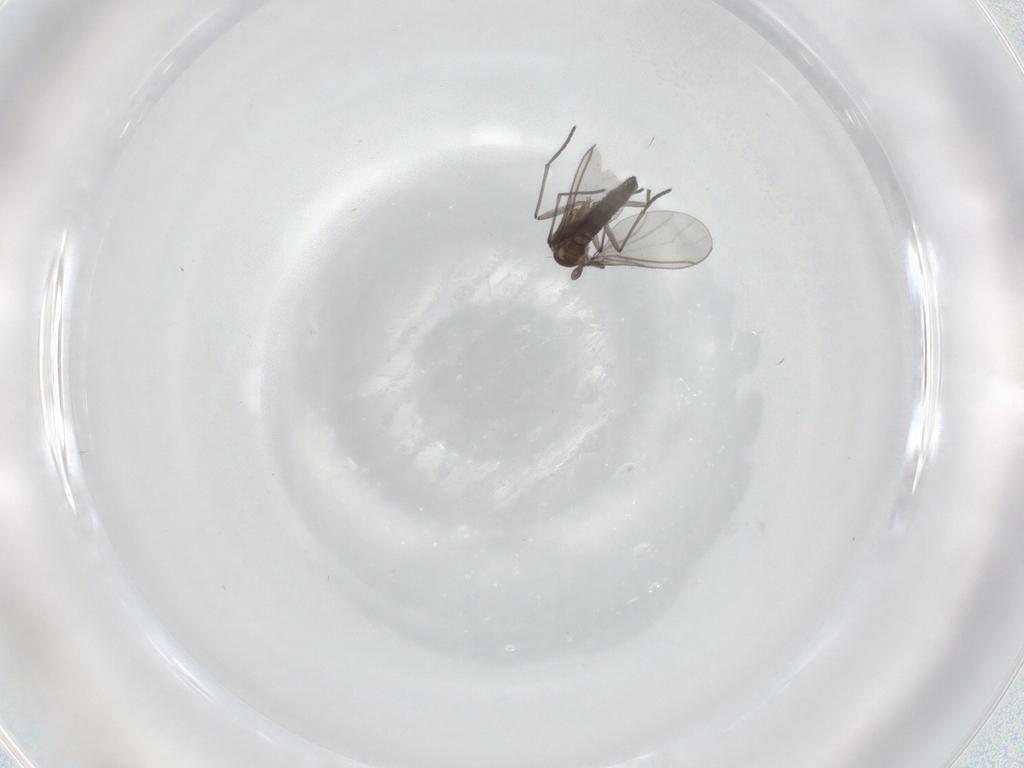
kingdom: Animalia
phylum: Arthropoda
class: Insecta
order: Diptera
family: Sciaridae
